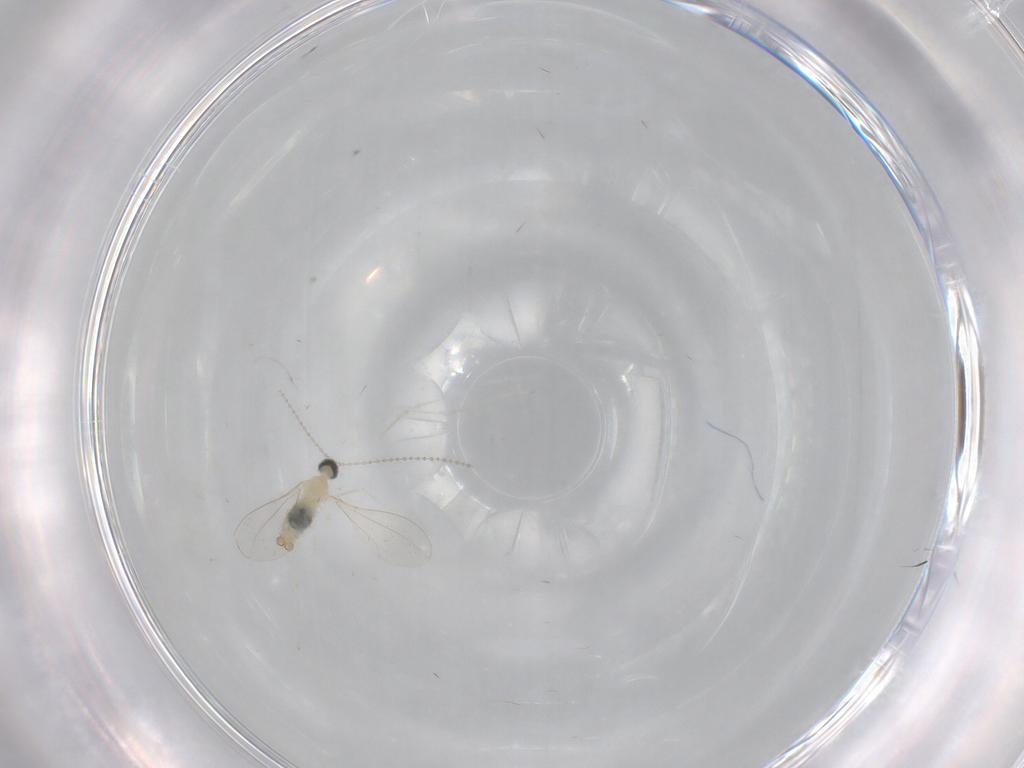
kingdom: Animalia
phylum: Arthropoda
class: Insecta
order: Diptera
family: Cecidomyiidae
